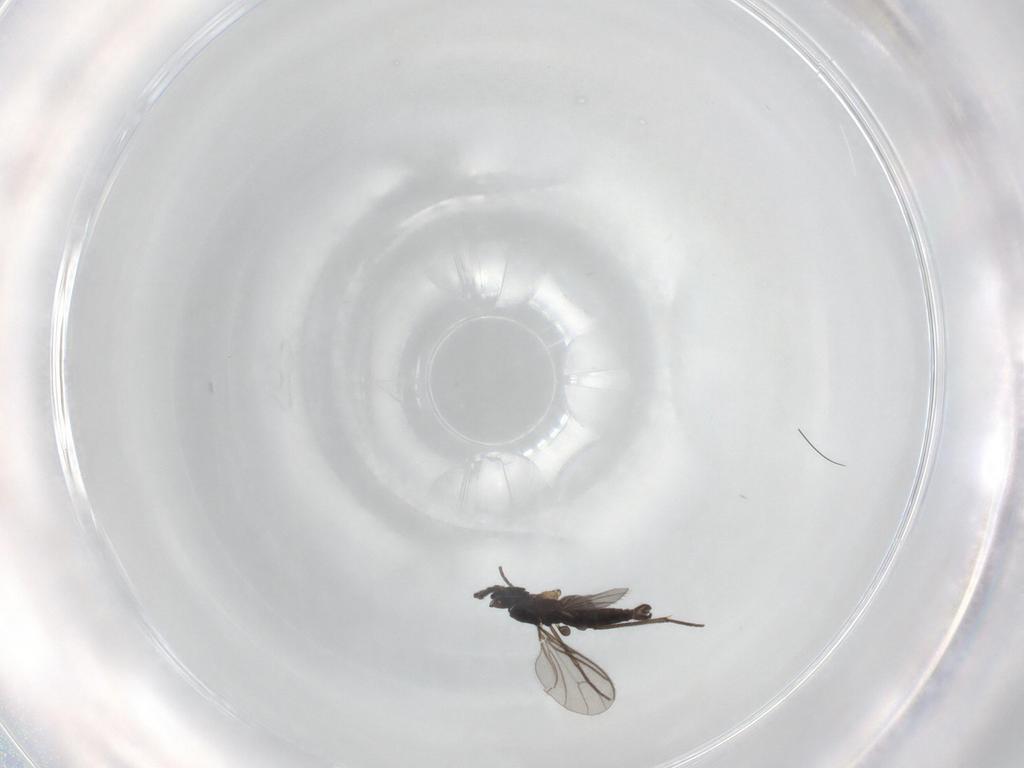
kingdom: Animalia
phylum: Arthropoda
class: Insecta
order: Diptera
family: Sciaridae
